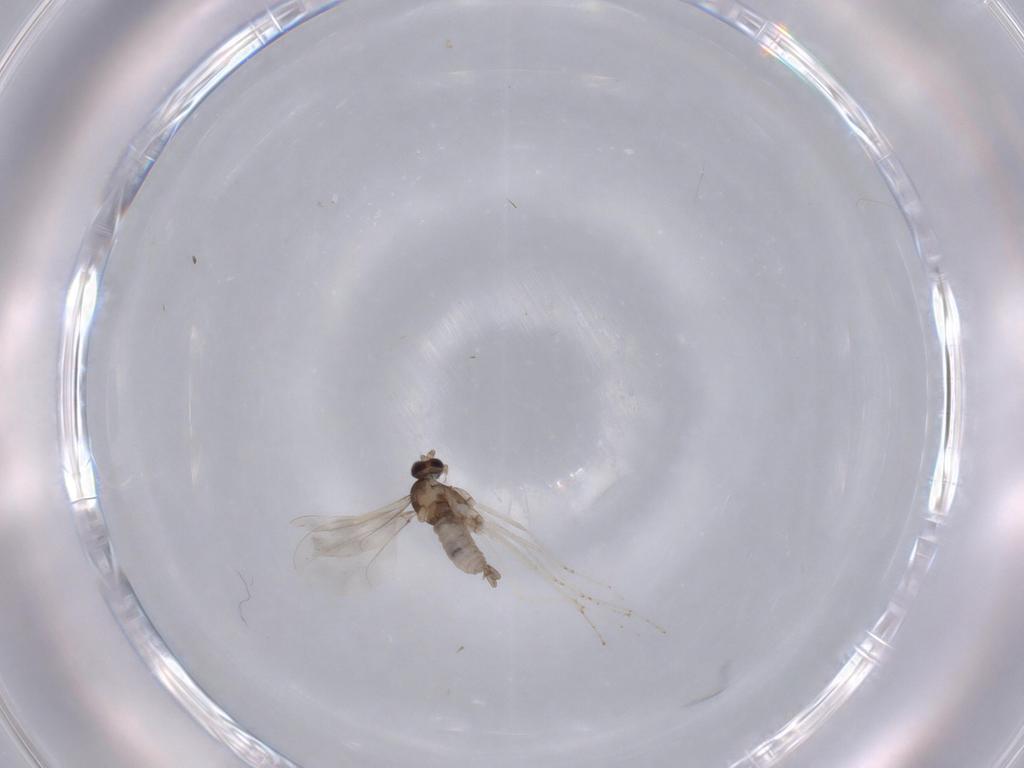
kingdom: Animalia
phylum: Arthropoda
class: Insecta
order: Diptera
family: Cecidomyiidae
